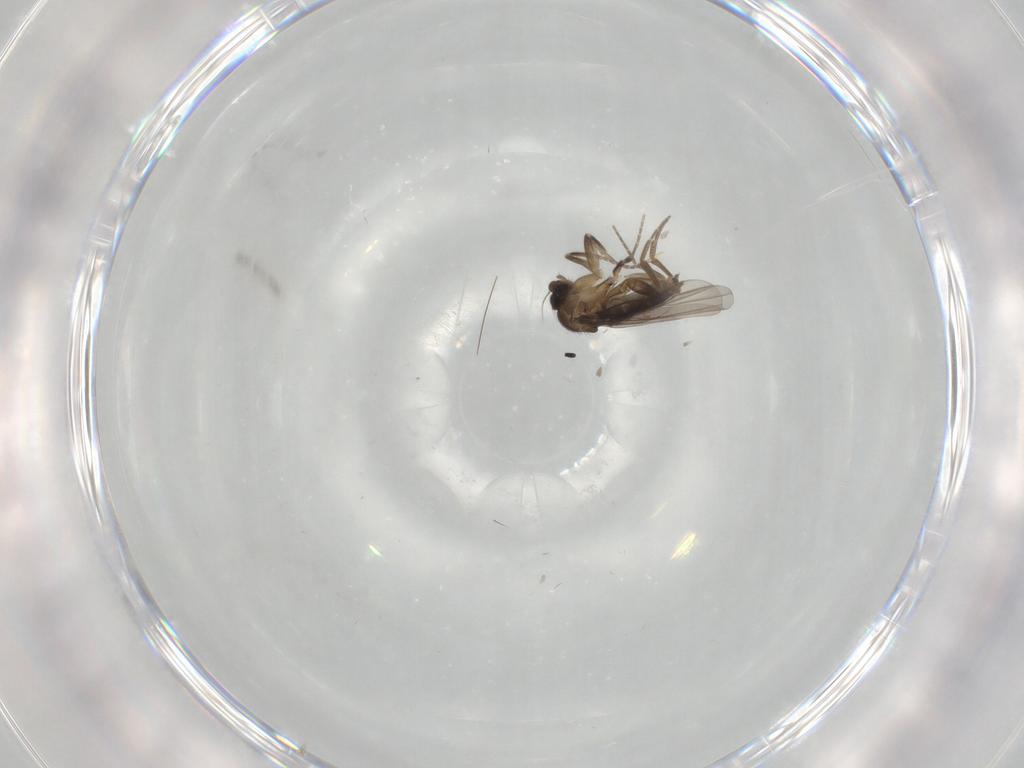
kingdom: Animalia
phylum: Arthropoda
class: Insecta
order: Diptera
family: Phoridae
